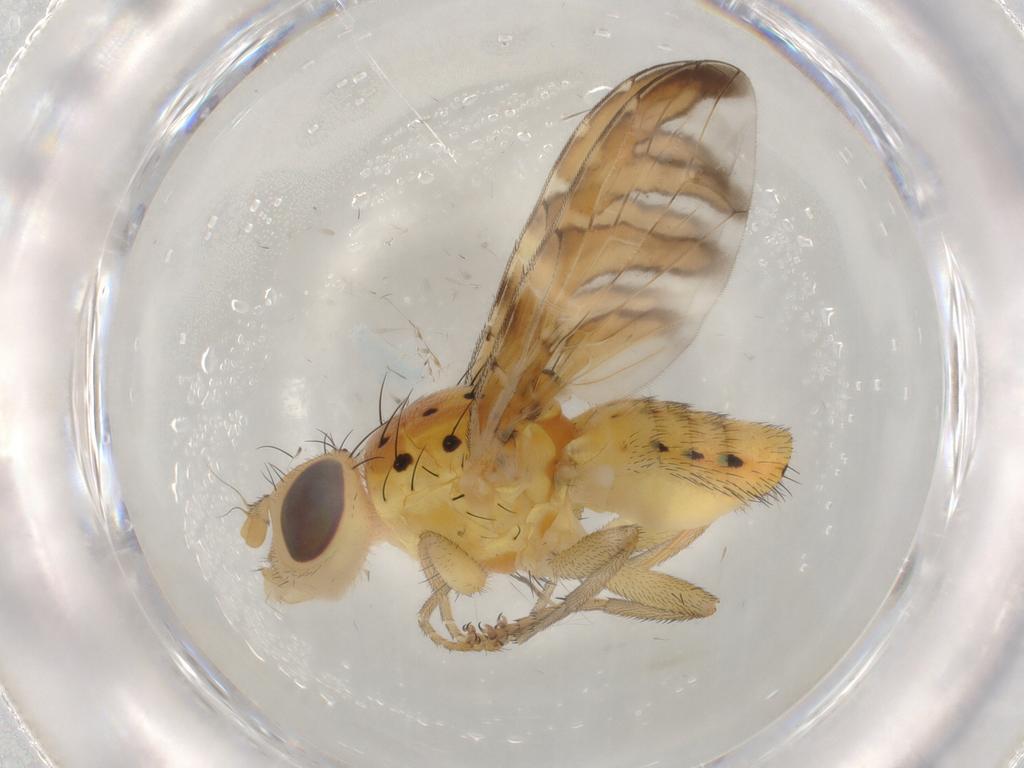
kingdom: Animalia
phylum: Arthropoda
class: Insecta
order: Diptera
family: Tephritidae
